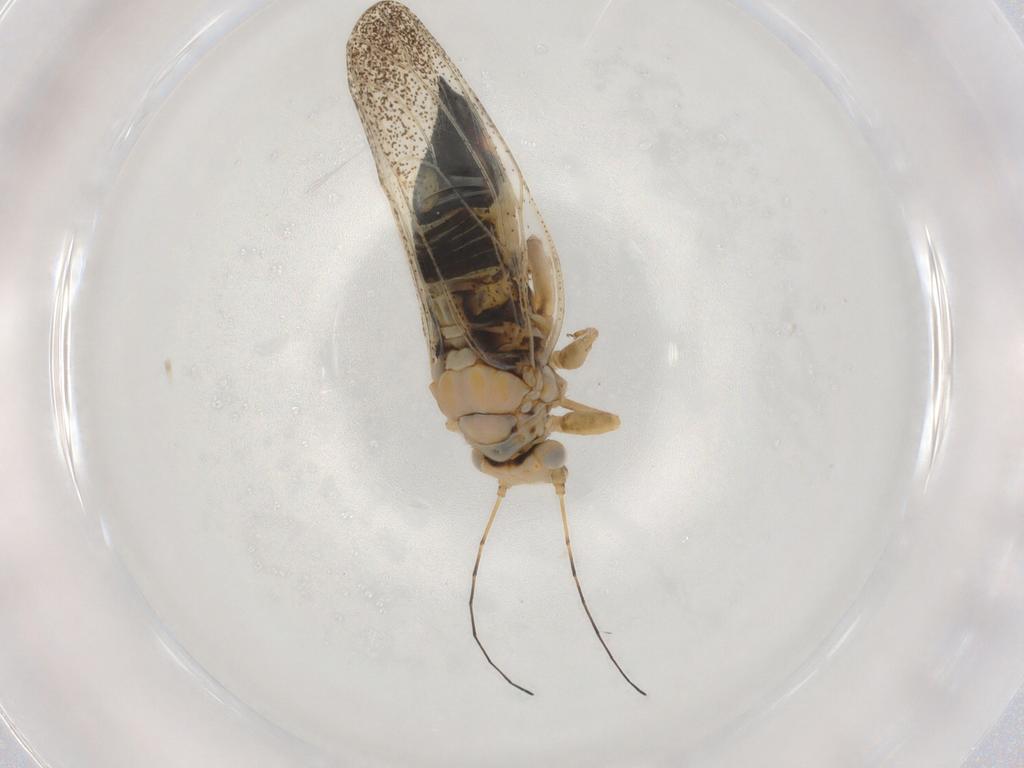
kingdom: Animalia
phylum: Arthropoda
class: Insecta
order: Hemiptera
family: Psylloidea_incertae_sedis
